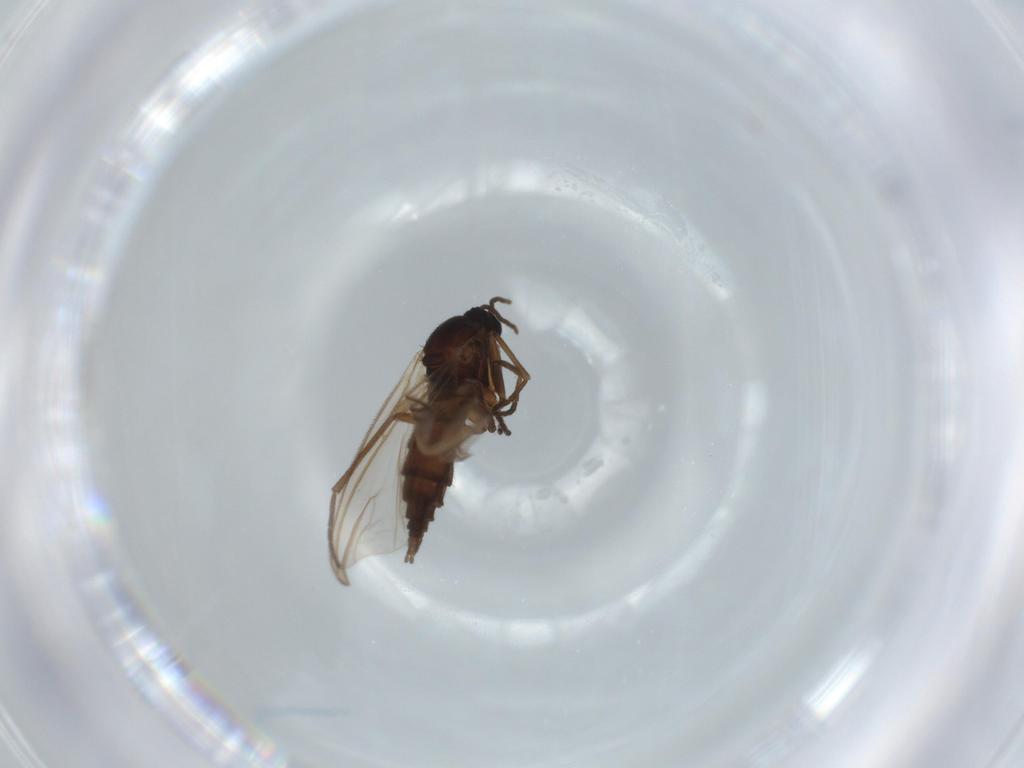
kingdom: Animalia
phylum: Arthropoda
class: Insecta
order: Diptera
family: Sciaridae
